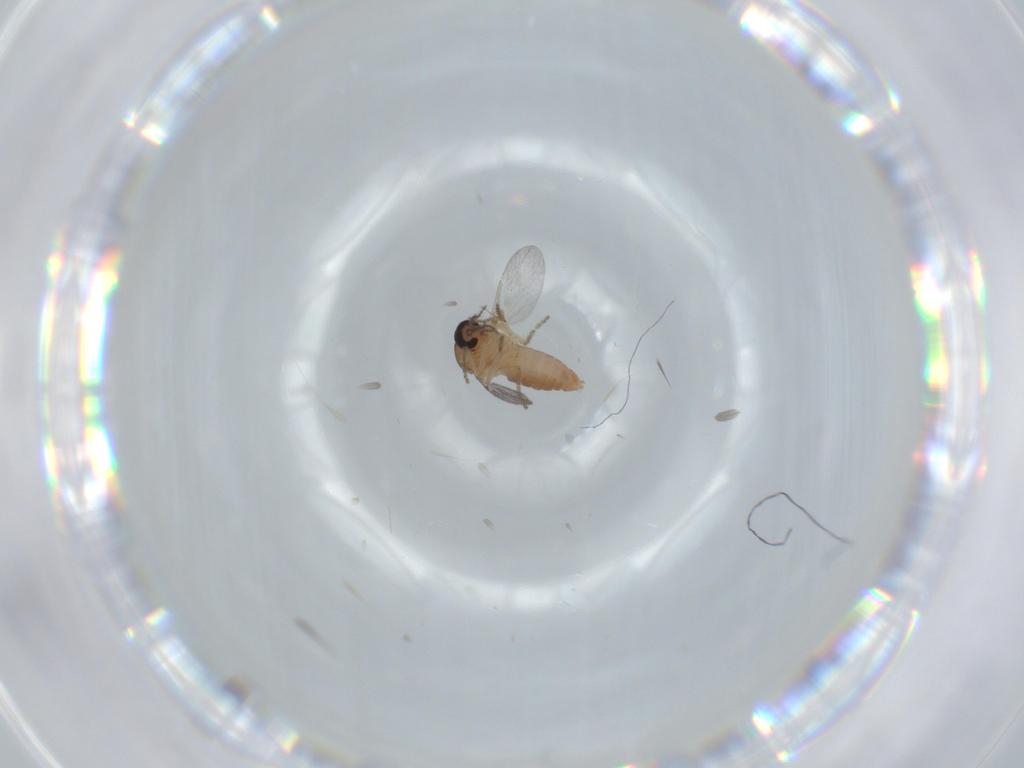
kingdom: Animalia
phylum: Arthropoda
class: Insecta
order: Diptera
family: Ceratopogonidae
